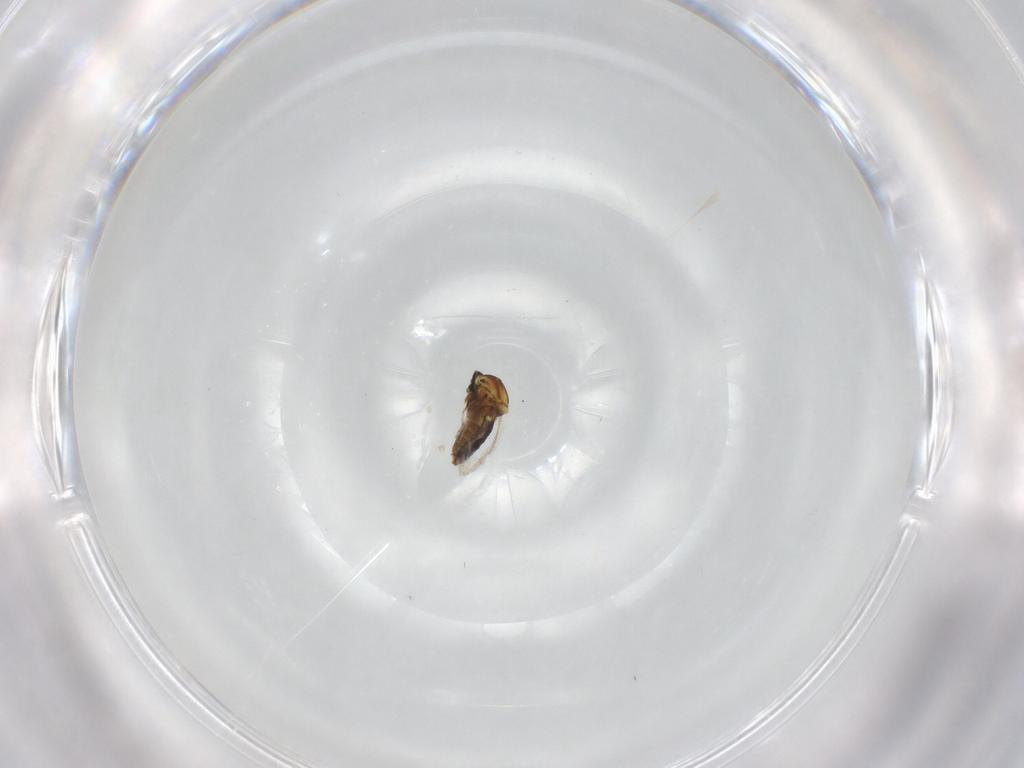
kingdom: Animalia
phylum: Arthropoda
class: Insecta
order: Diptera
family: Ceratopogonidae
